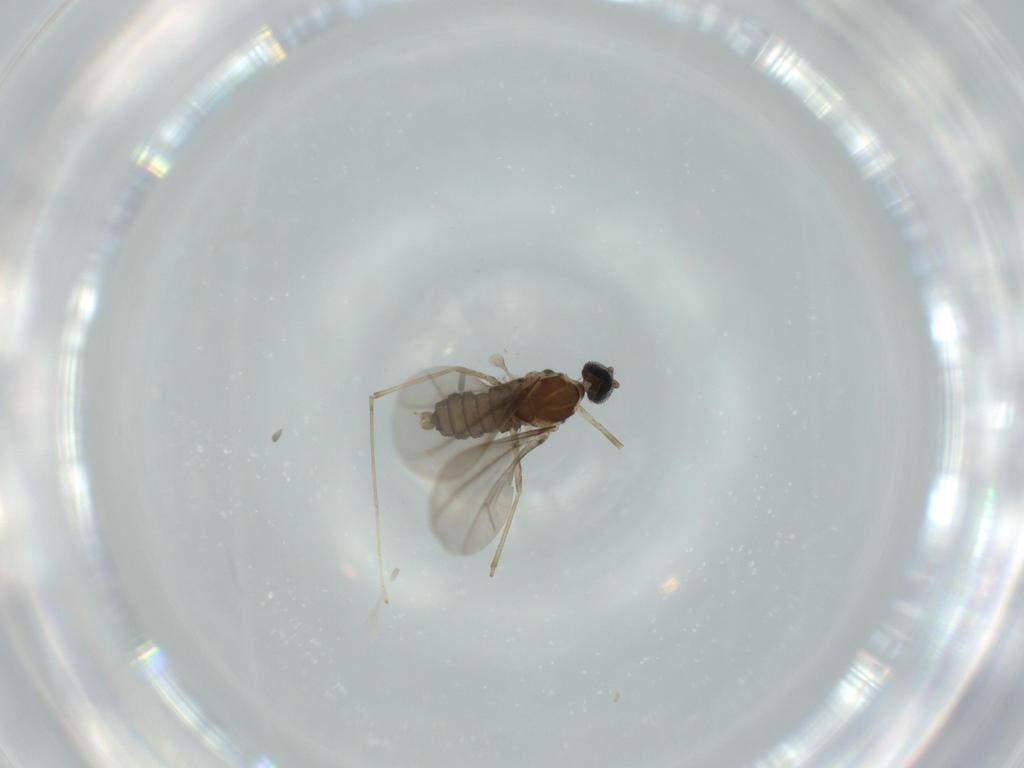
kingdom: Animalia
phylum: Arthropoda
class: Insecta
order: Diptera
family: Cecidomyiidae
